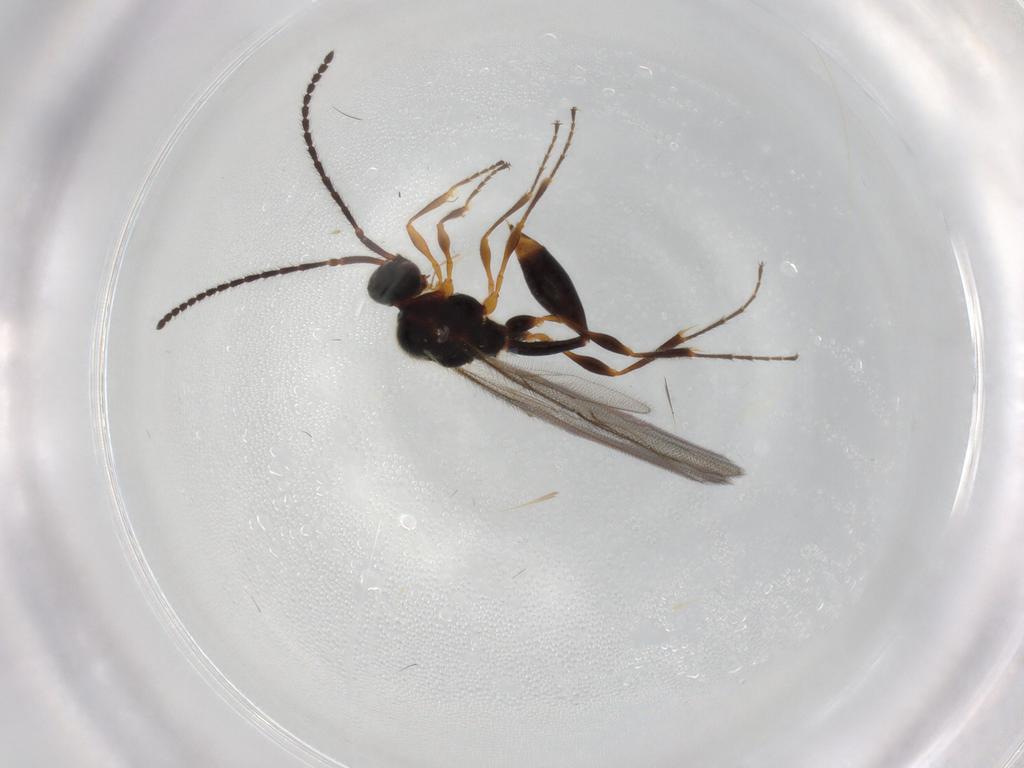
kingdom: Animalia
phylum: Arthropoda
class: Insecta
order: Hymenoptera
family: Diapriidae
